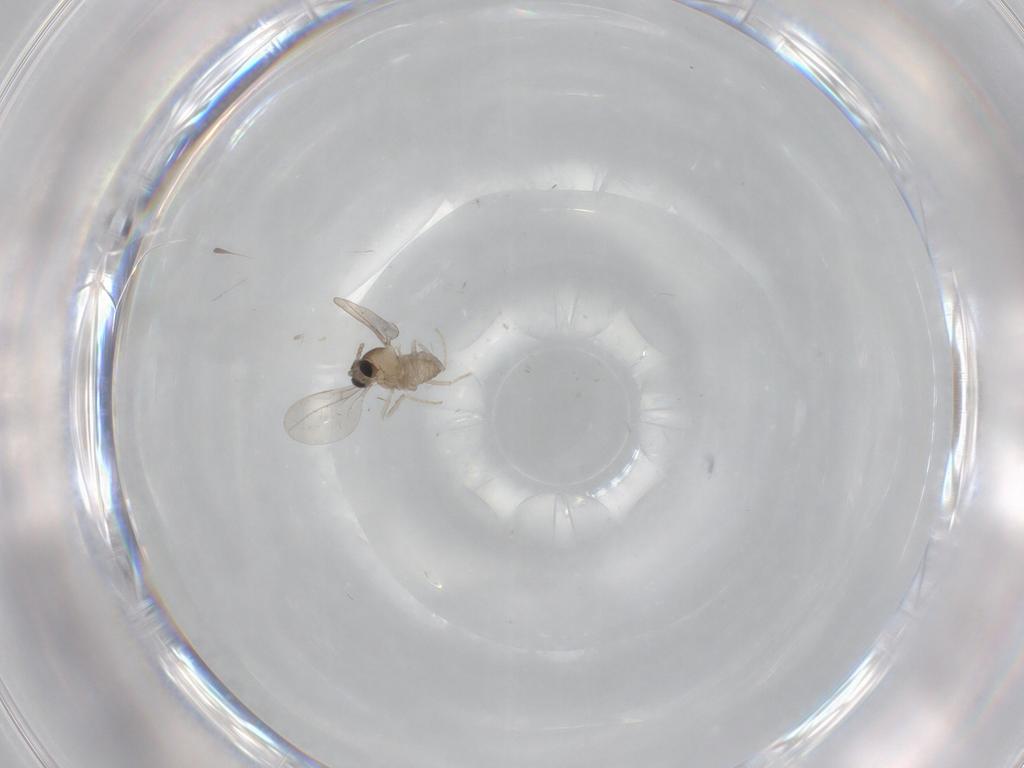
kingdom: Animalia
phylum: Arthropoda
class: Insecta
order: Diptera
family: Cecidomyiidae
